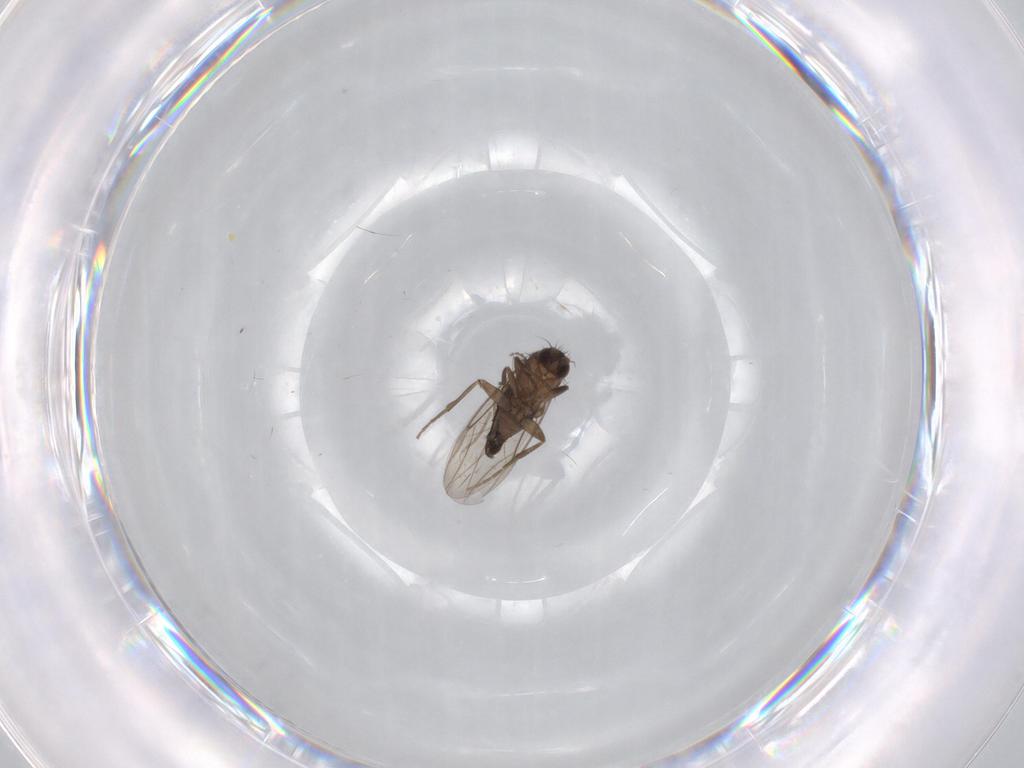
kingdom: Animalia
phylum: Arthropoda
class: Insecta
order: Diptera
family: Phoridae
